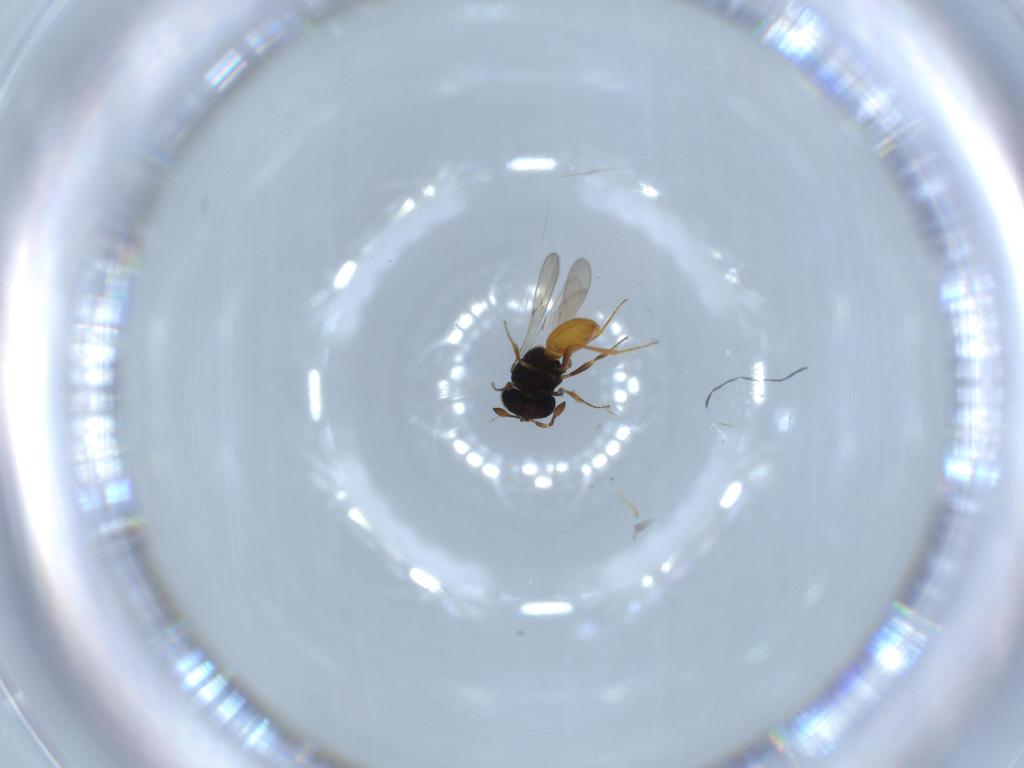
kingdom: Animalia
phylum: Arthropoda
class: Insecta
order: Hymenoptera
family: Scelionidae
